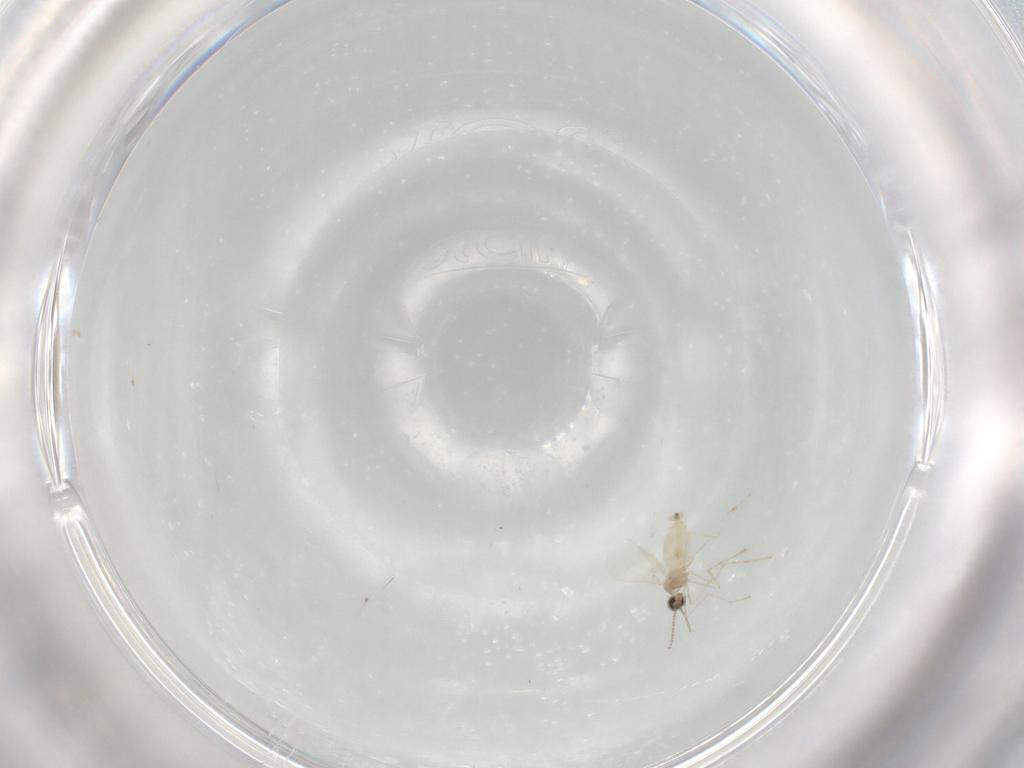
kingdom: Animalia
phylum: Arthropoda
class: Insecta
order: Diptera
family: Cecidomyiidae
